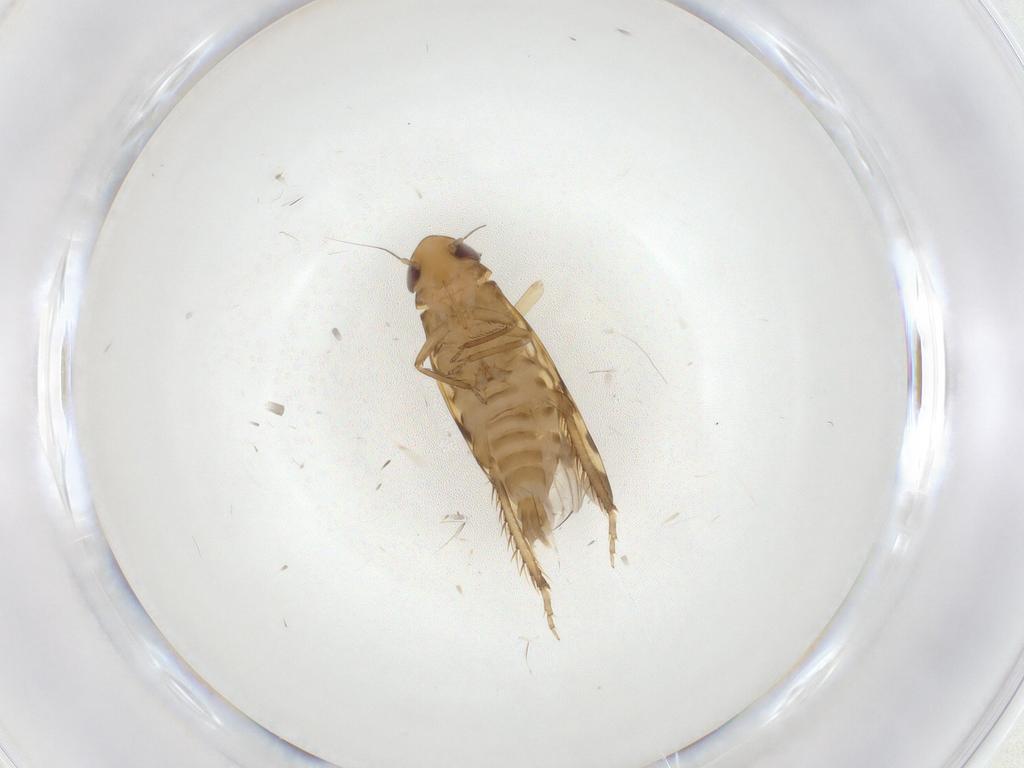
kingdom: Animalia
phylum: Arthropoda
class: Insecta
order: Hemiptera
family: Cicadellidae
